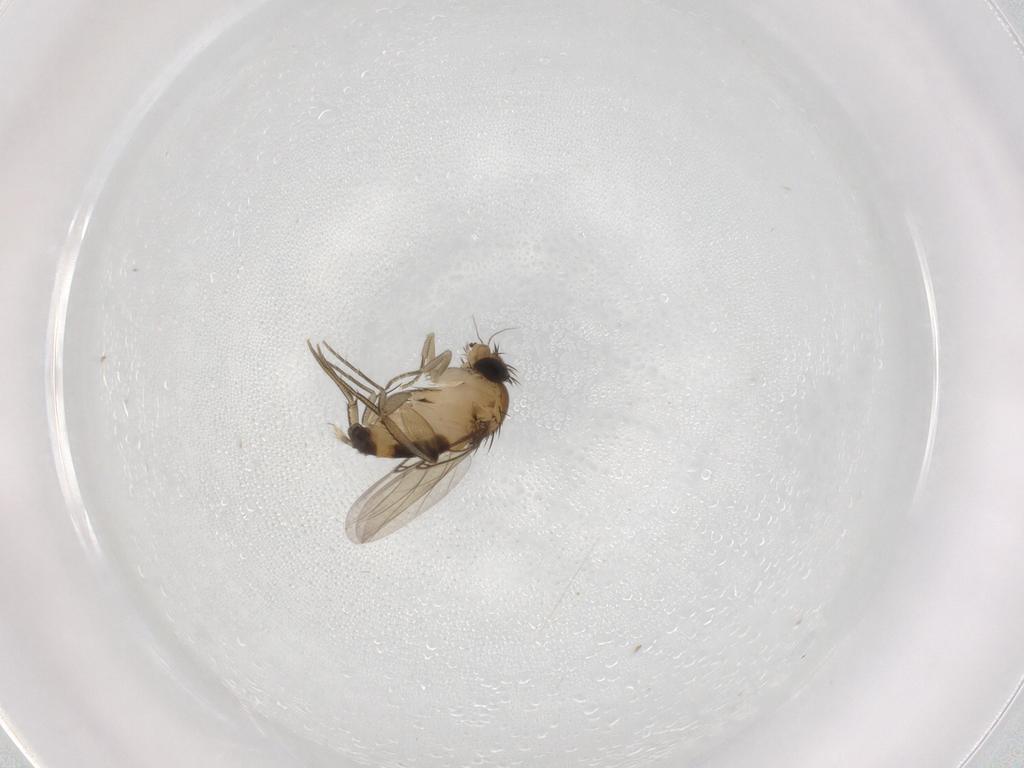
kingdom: Animalia
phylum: Arthropoda
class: Insecta
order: Diptera
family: Phoridae
